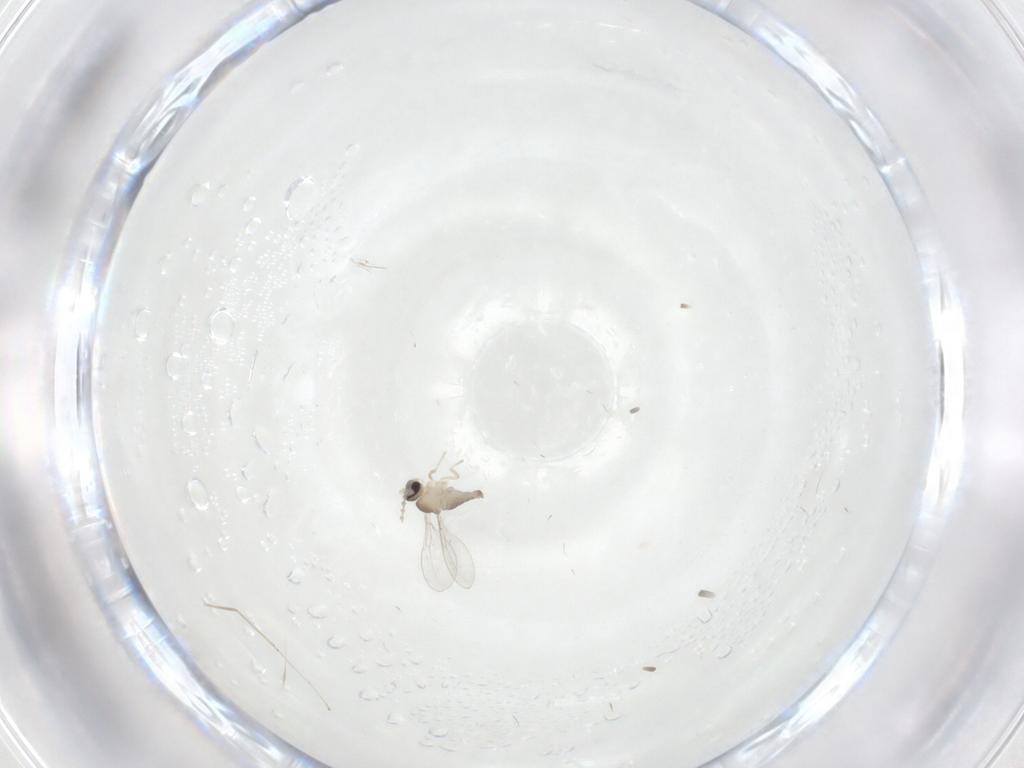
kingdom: Animalia
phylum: Arthropoda
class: Insecta
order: Diptera
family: Cecidomyiidae
